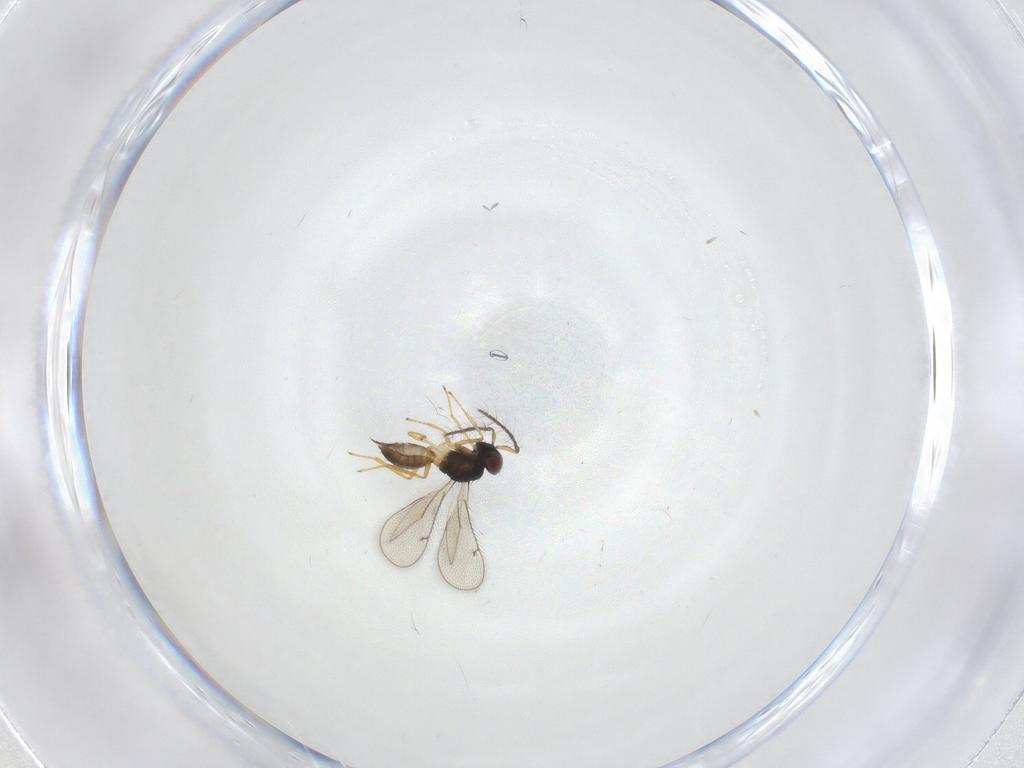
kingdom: Animalia
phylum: Arthropoda
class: Insecta
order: Hymenoptera
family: Eulophidae
